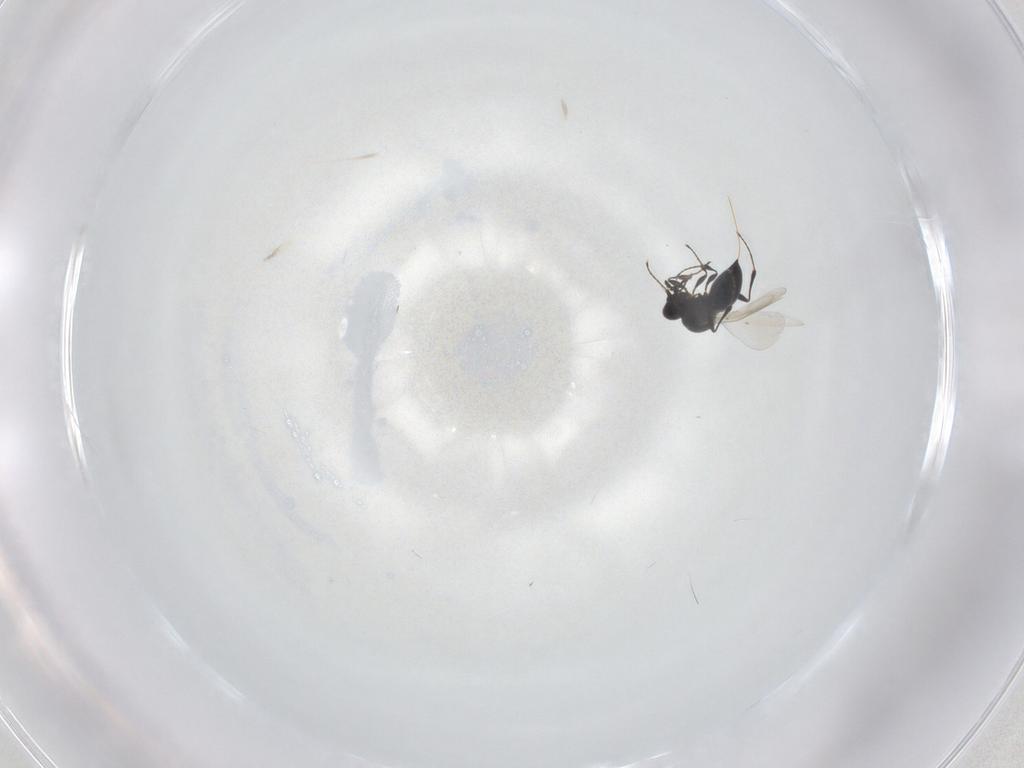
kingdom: Animalia
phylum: Arthropoda
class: Insecta
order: Hymenoptera
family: Platygastridae
